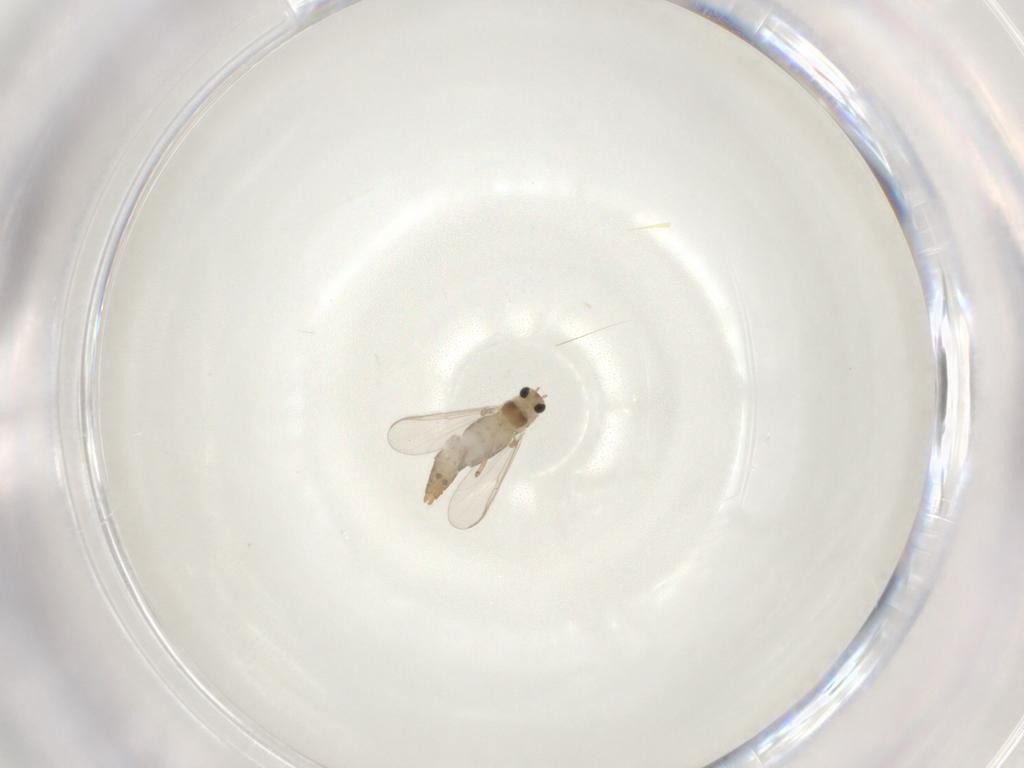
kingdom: Animalia
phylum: Arthropoda
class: Insecta
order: Diptera
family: Chironomidae
